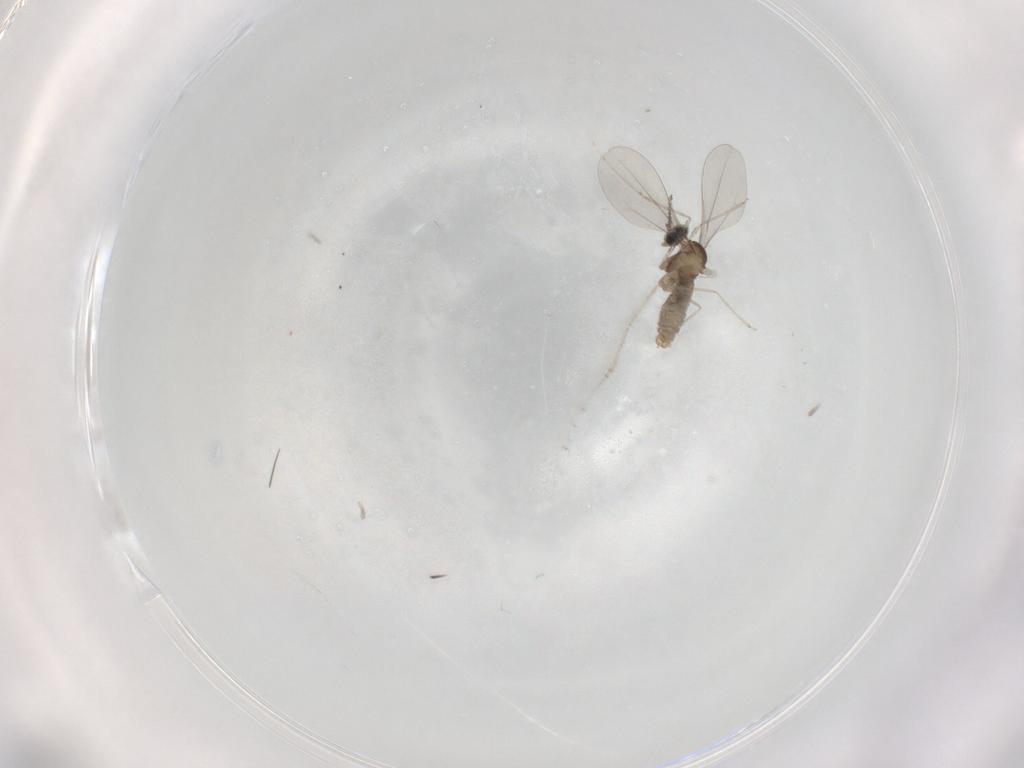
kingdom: Animalia
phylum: Arthropoda
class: Insecta
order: Diptera
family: Cecidomyiidae
